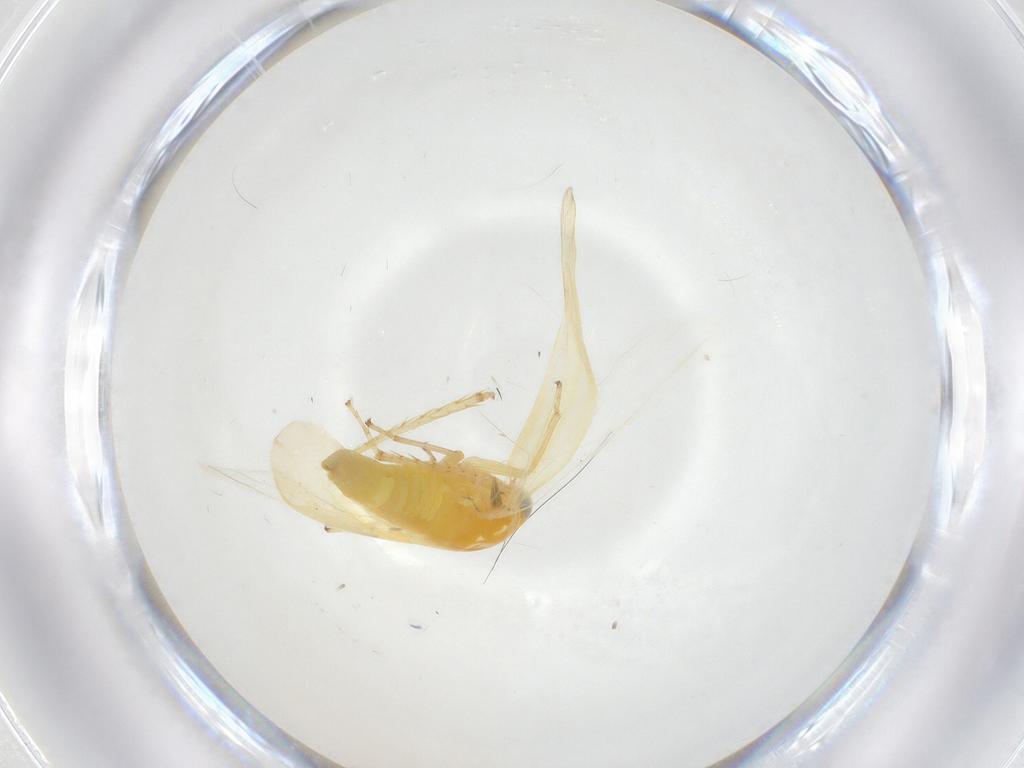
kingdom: Animalia
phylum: Arthropoda
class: Insecta
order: Hemiptera
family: Cicadellidae
